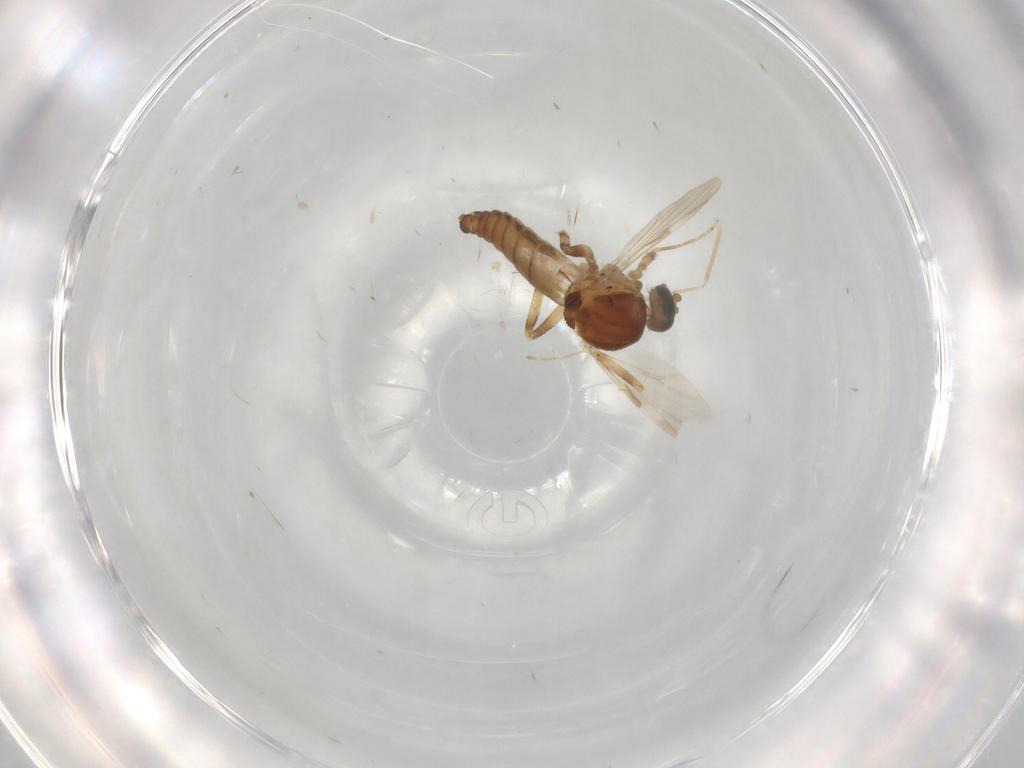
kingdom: Animalia
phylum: Arthropoda
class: Insecta
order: Diptera
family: Cecidomyiidae
